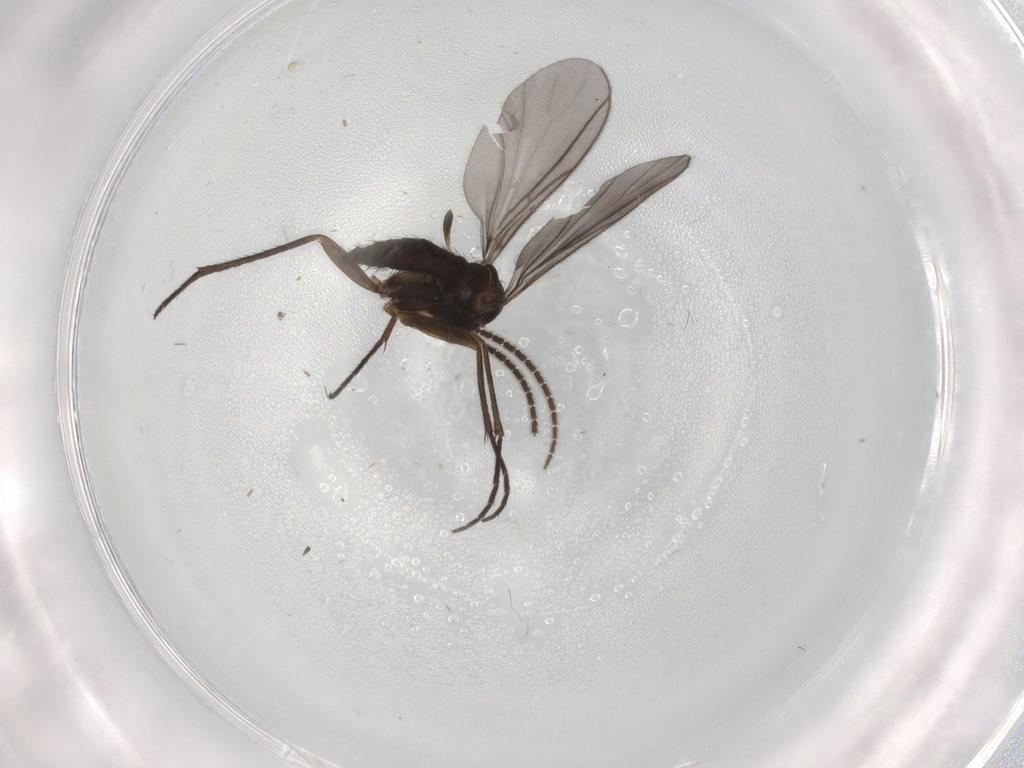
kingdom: Animalia
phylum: Arthropoda
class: Insecta
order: Diptera
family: Sciaridae
